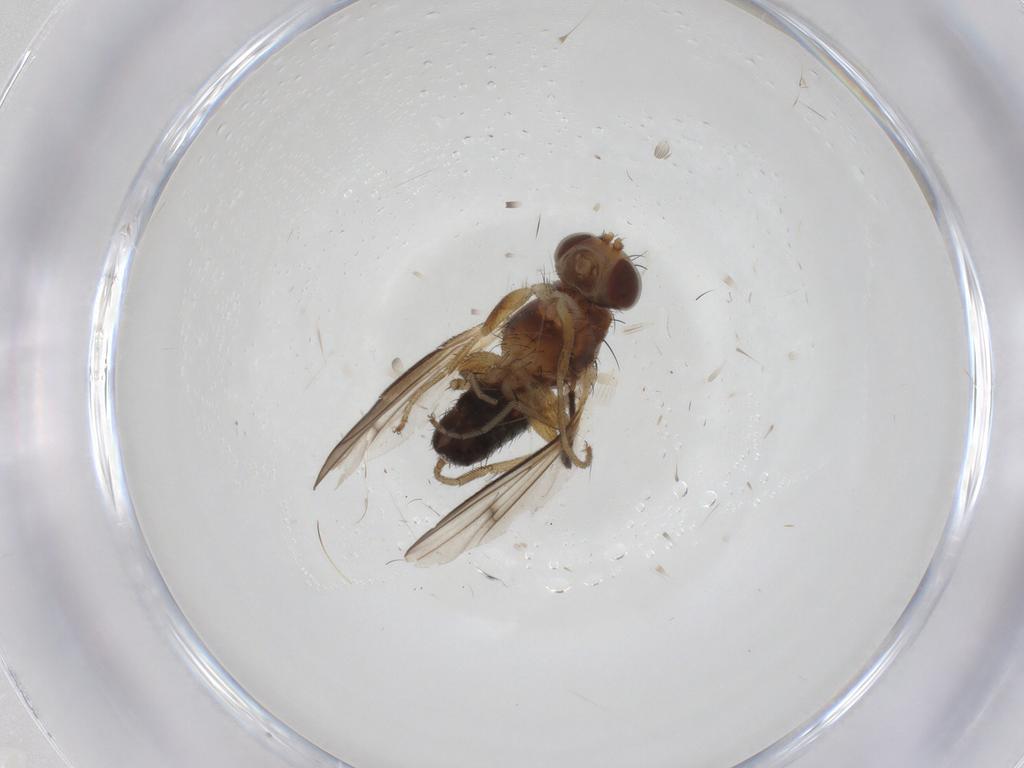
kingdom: Animalia
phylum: Arthropoda
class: Insecta
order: Diptera
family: Heleomyzidae
